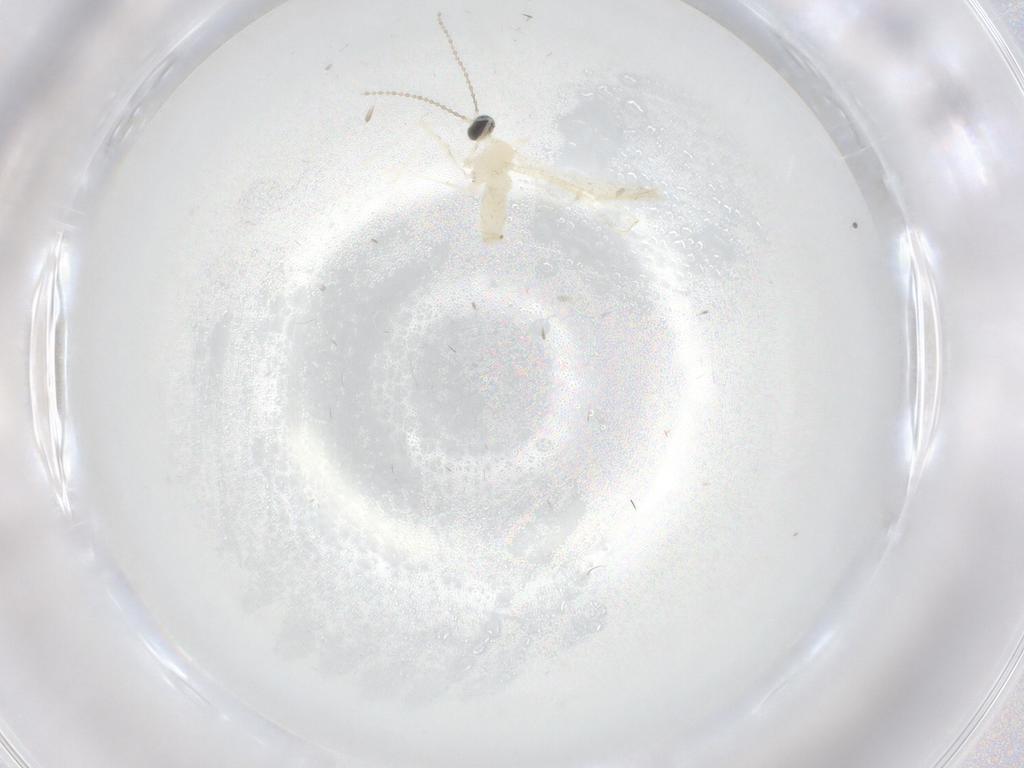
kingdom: Animalia
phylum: Arthropoda
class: Insecta
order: Diptera
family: Cecidomyiidae
